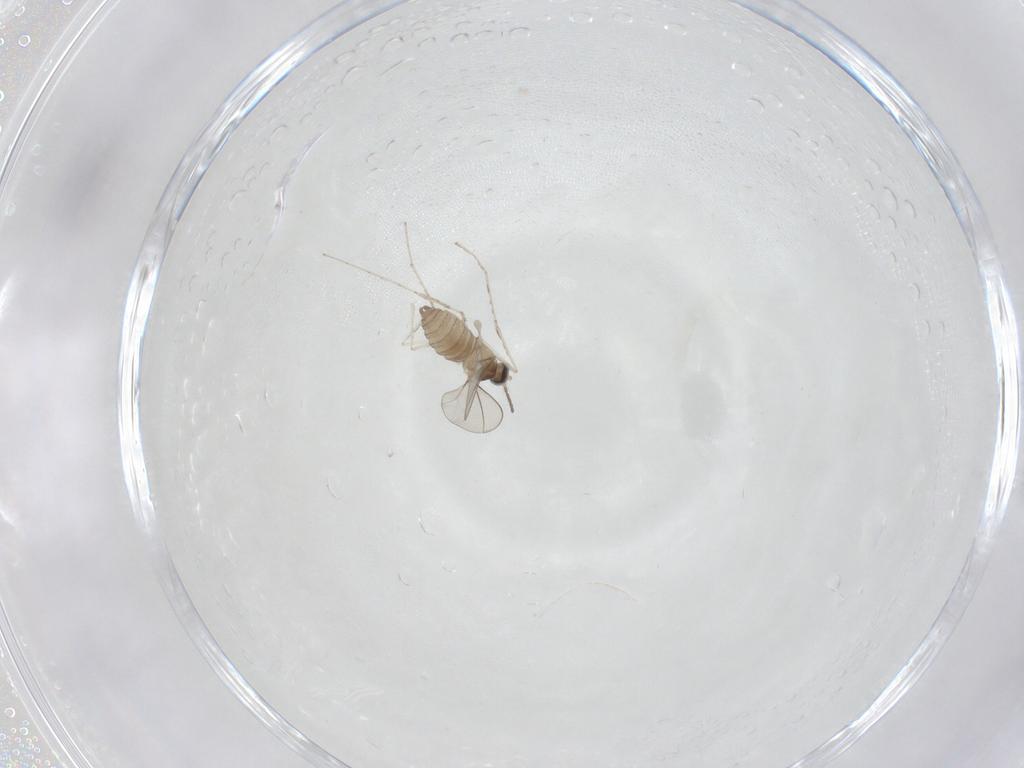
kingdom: Animalia
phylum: Arthropoda
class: Insecta
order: Diptera
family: Cecidomyiidae
